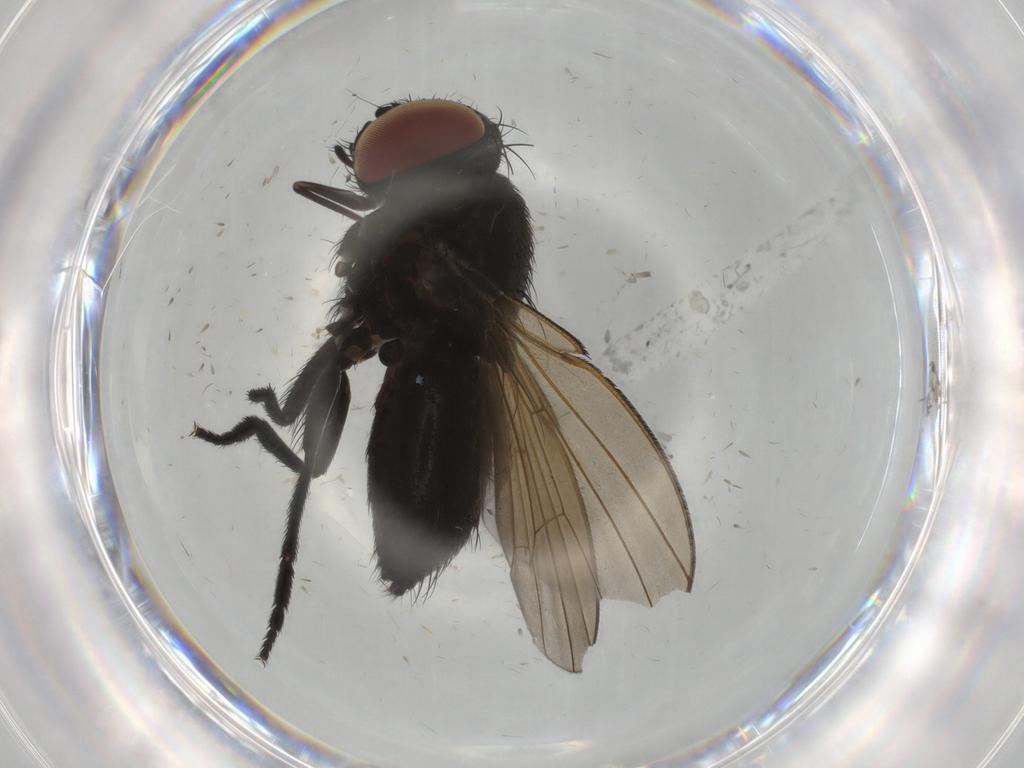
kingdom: Animalia
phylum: Arthropoda
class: Insecta
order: Diptera
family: Milichiidae
